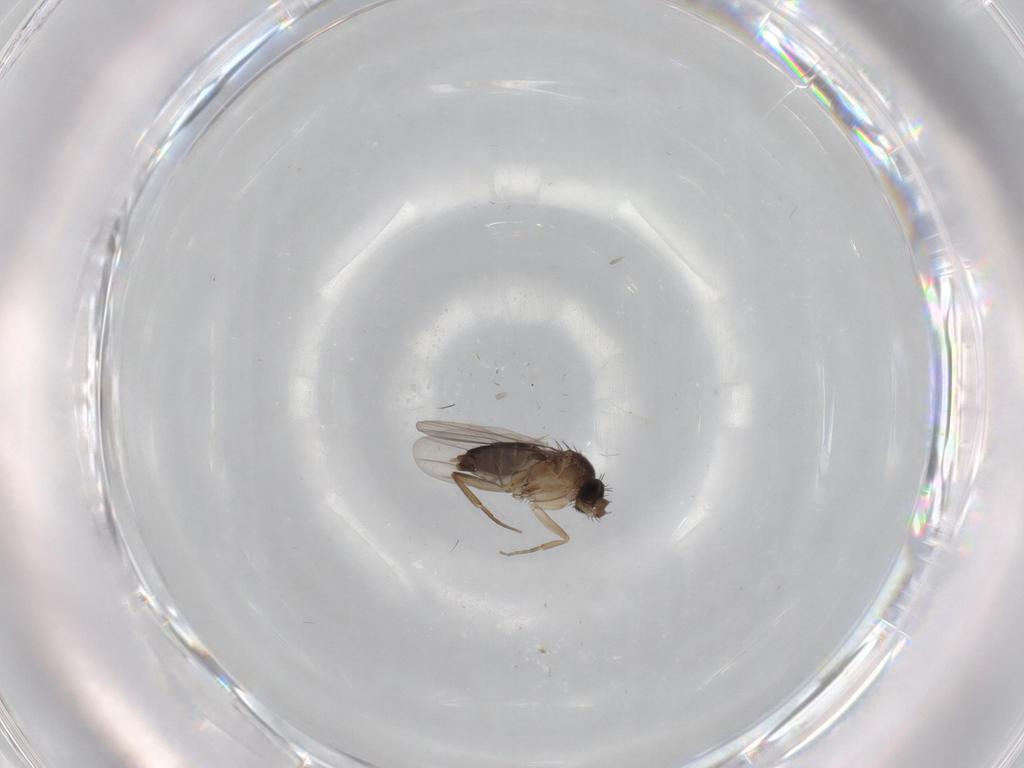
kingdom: Animalia
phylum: Arthropoda
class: Insecta
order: Diptera
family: Phoridae
